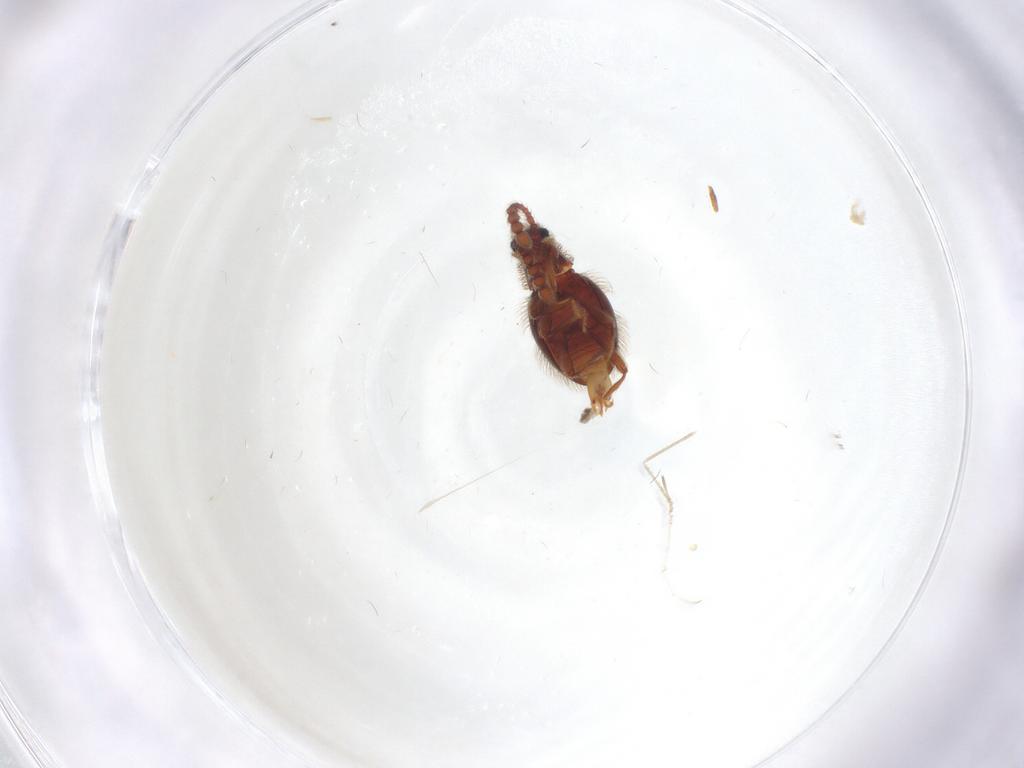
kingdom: Animalia
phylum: Arthropoda
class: Insecta
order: Coleoptera
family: Staphylinidae
